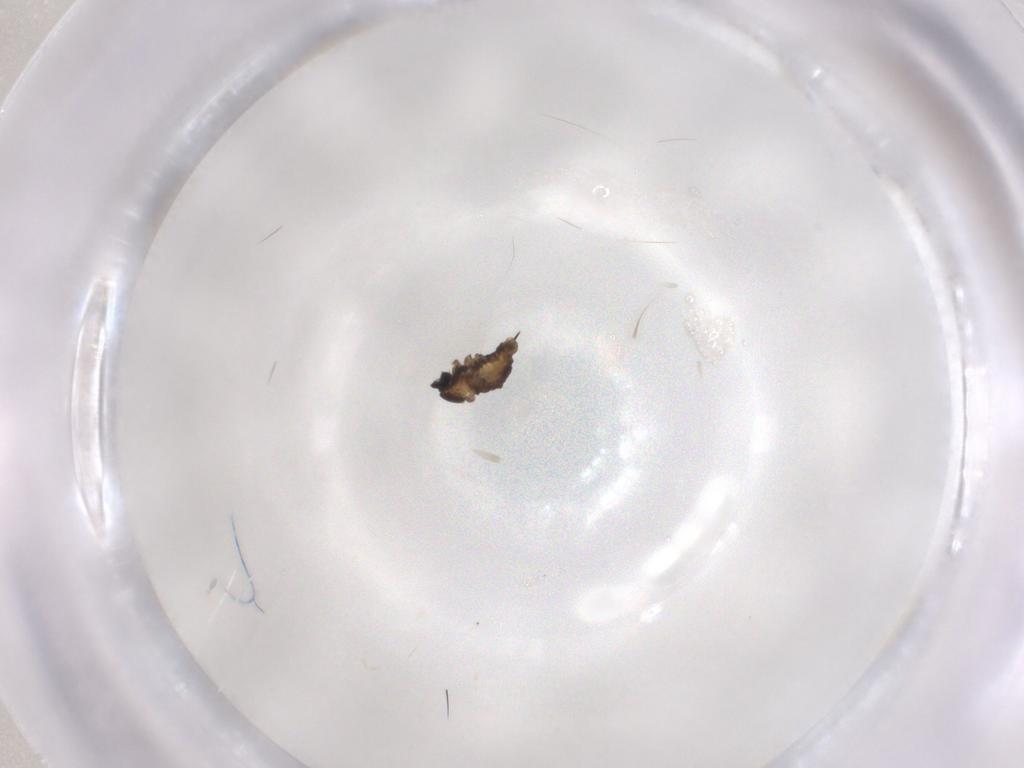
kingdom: Animalia
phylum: Arthropoda
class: Insecta
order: Diptera
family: Cecidomyiidae
